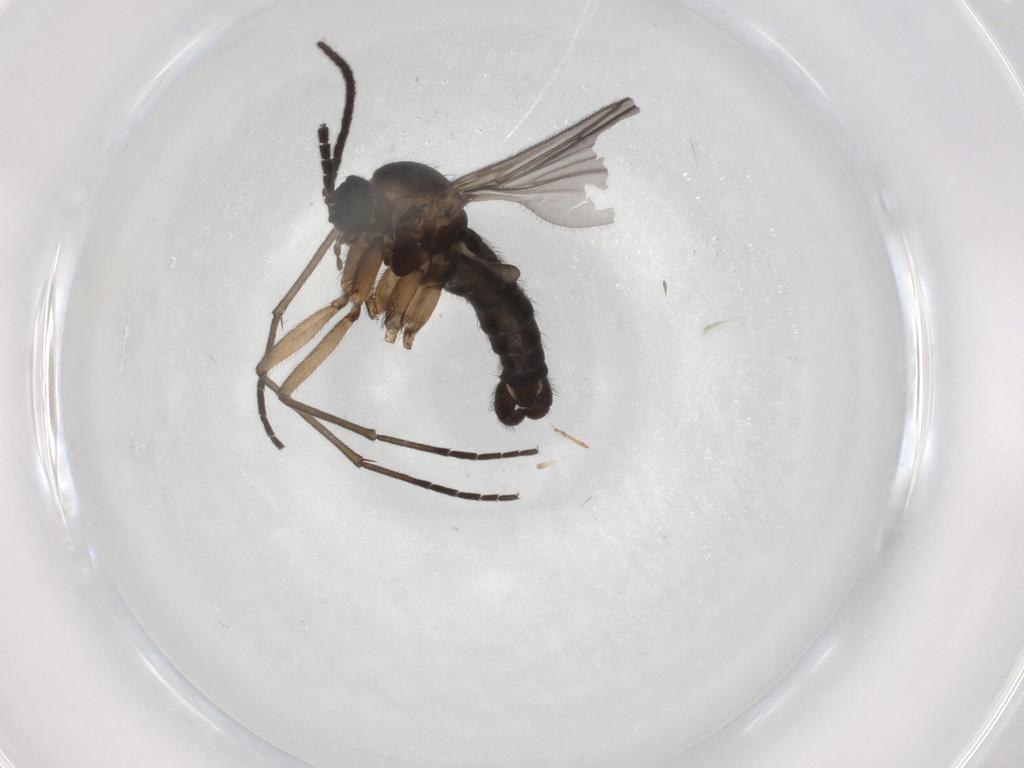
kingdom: Animalia
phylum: Arthropoda
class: Insecta
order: Diptera
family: Sciaridae
